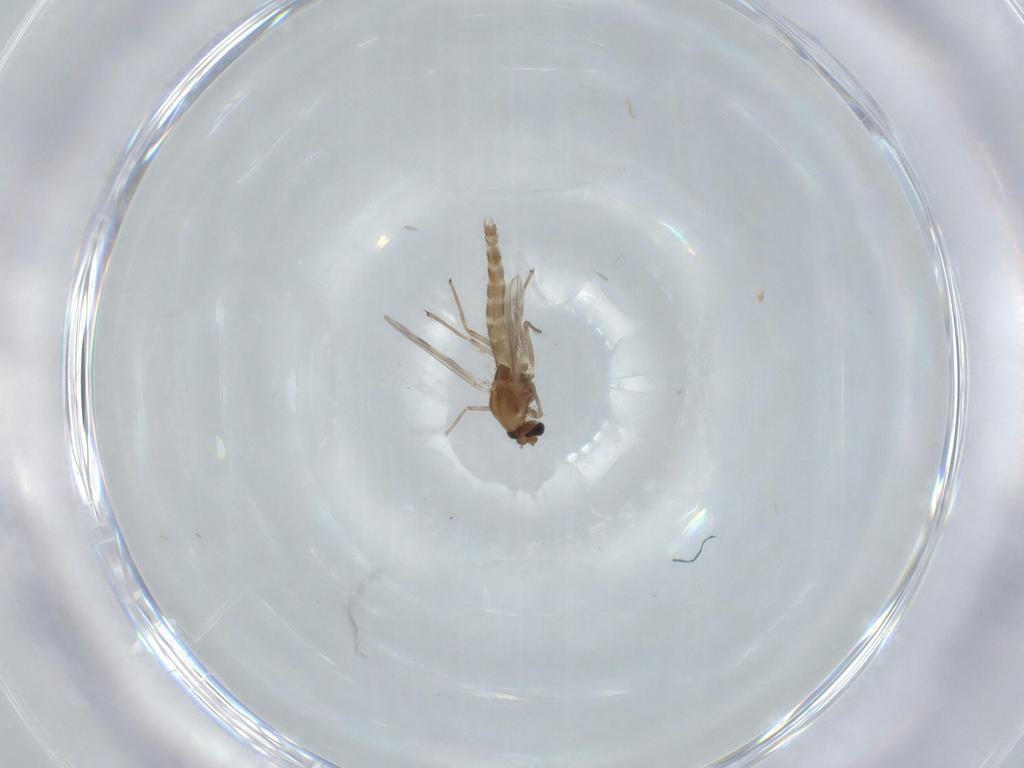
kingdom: Animalia
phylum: Arthropoda
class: Insecta
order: Diptera
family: Chironomidae
